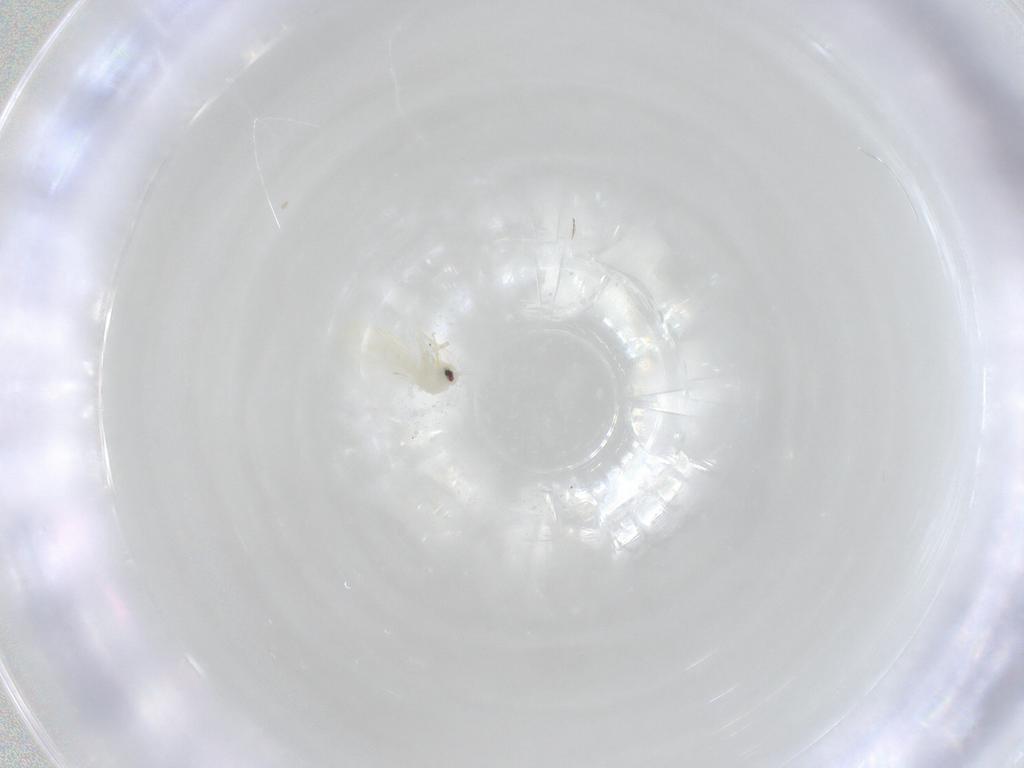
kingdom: Animalia
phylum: Arthropoda
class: Insecta
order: Hemiptera
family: Aleyrodidae
